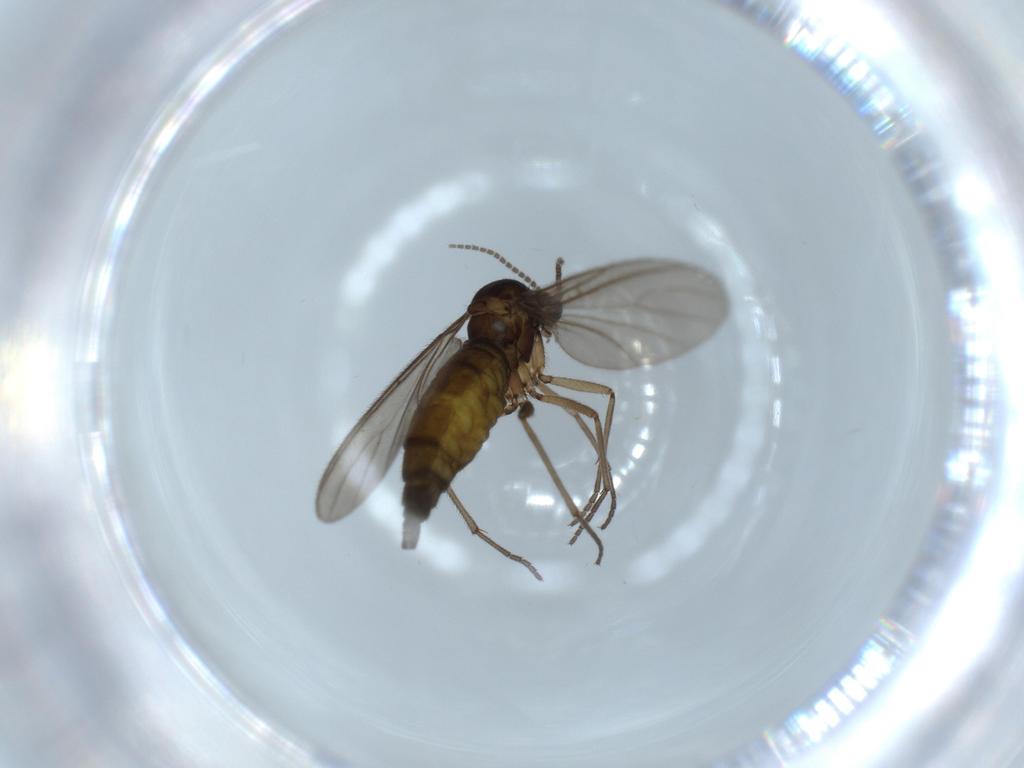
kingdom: Animalia
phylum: Arthropoda
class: Insecta
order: Diptera
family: Sciaridae
